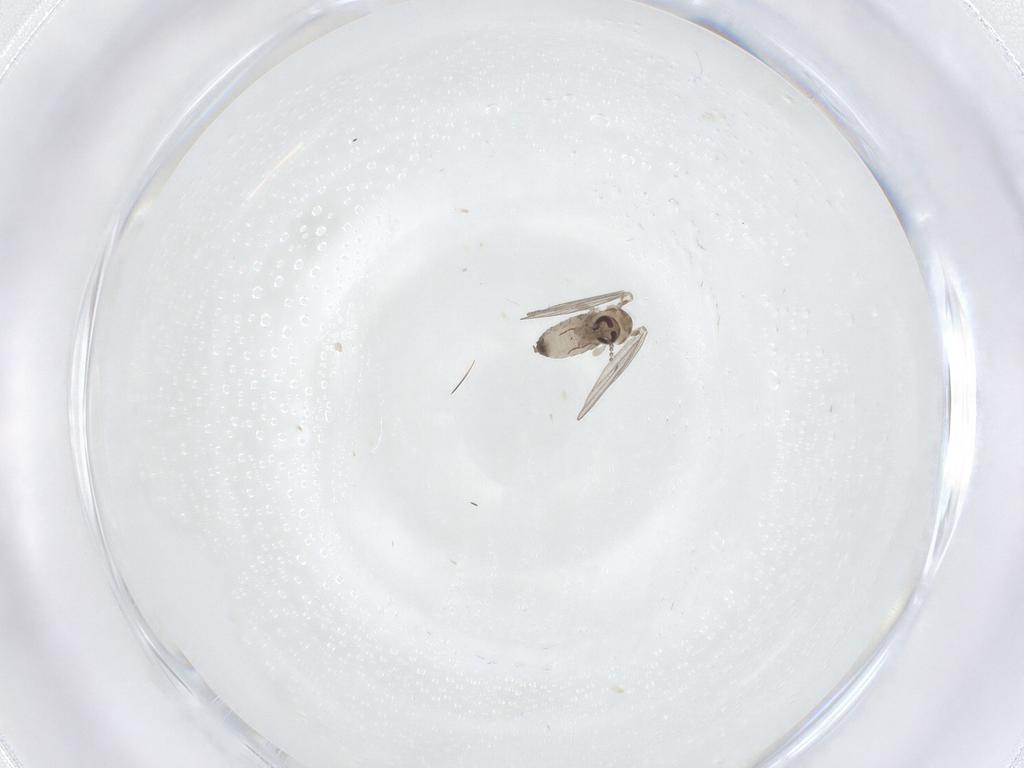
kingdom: Animalia
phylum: Arthropoda
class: Insecta
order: Diptera
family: Psychodidae
